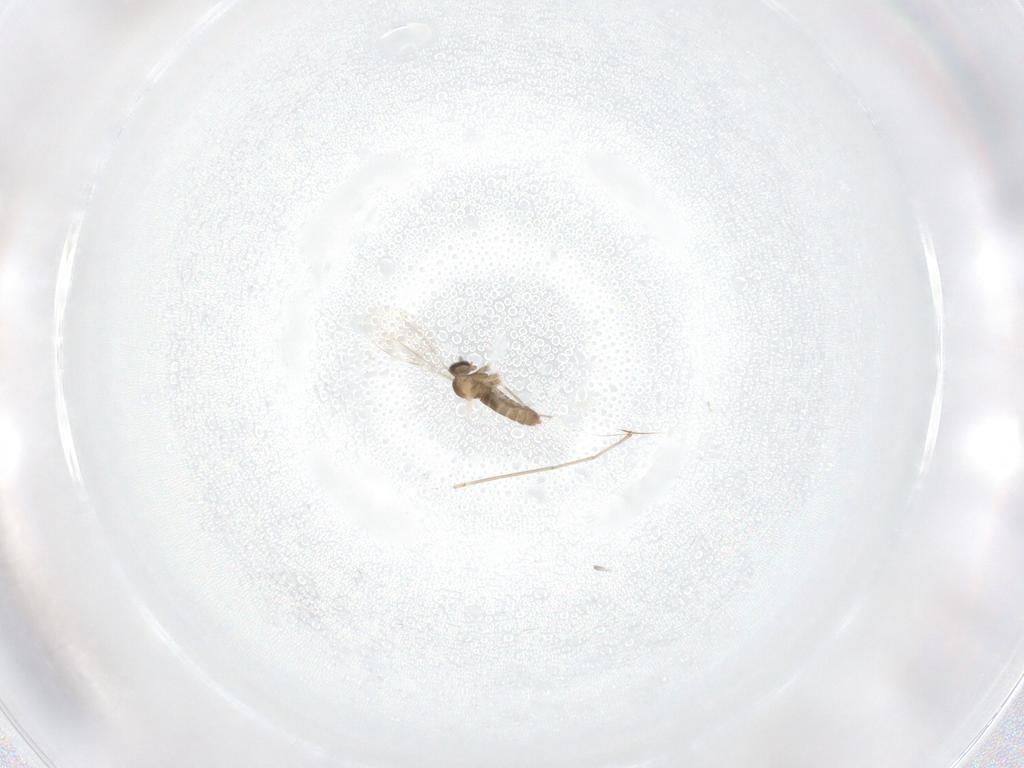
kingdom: Animalia
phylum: Arthropoda
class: Insecta
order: Diptera
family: Cecidomyiidae
